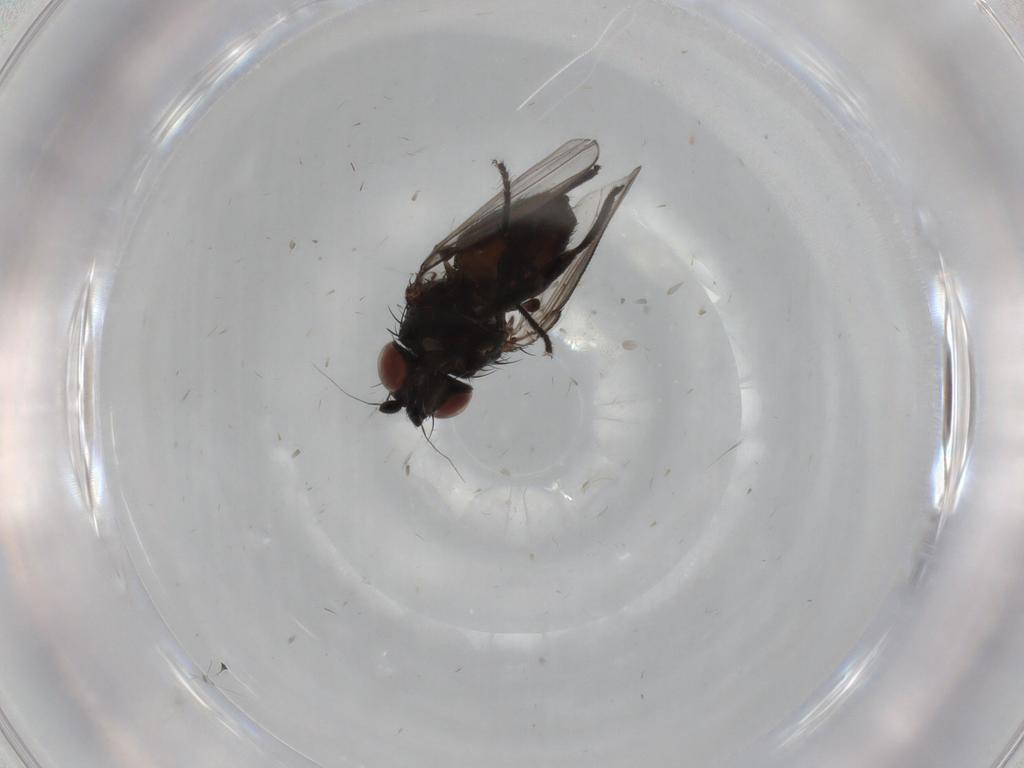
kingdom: Animalia
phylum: Arthropoda
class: Insecta
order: Diptera
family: Milichiidae
